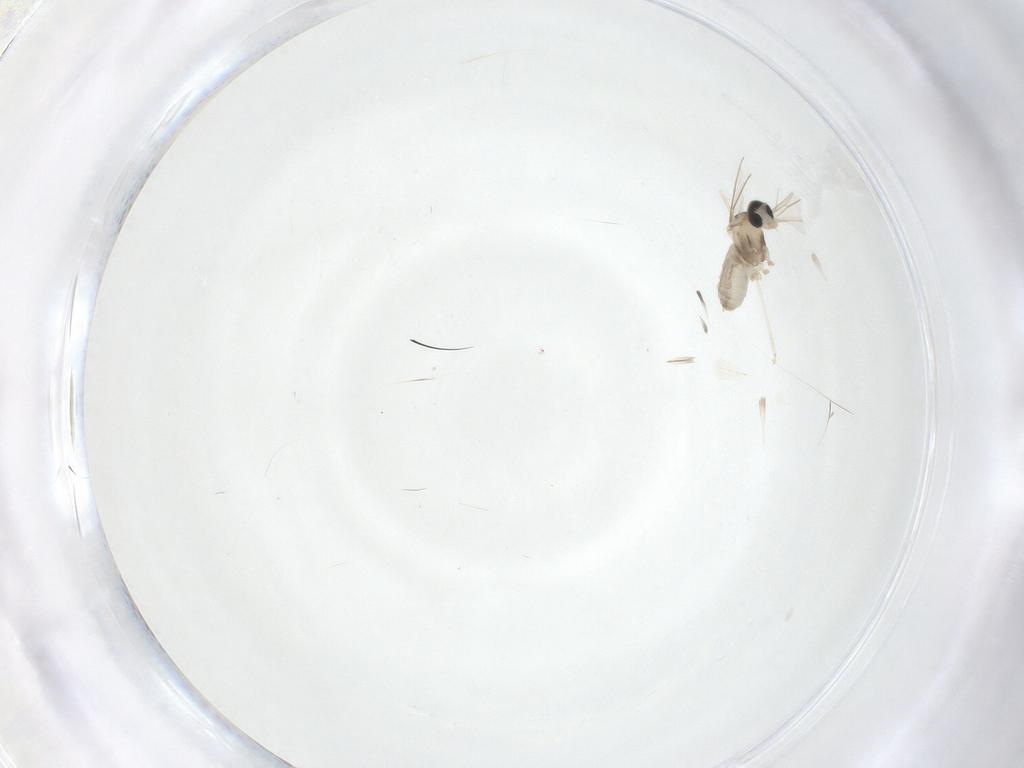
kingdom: Animalia
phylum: Arthropoda
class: Insecta
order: Diptera
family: Cecidomyiidae
